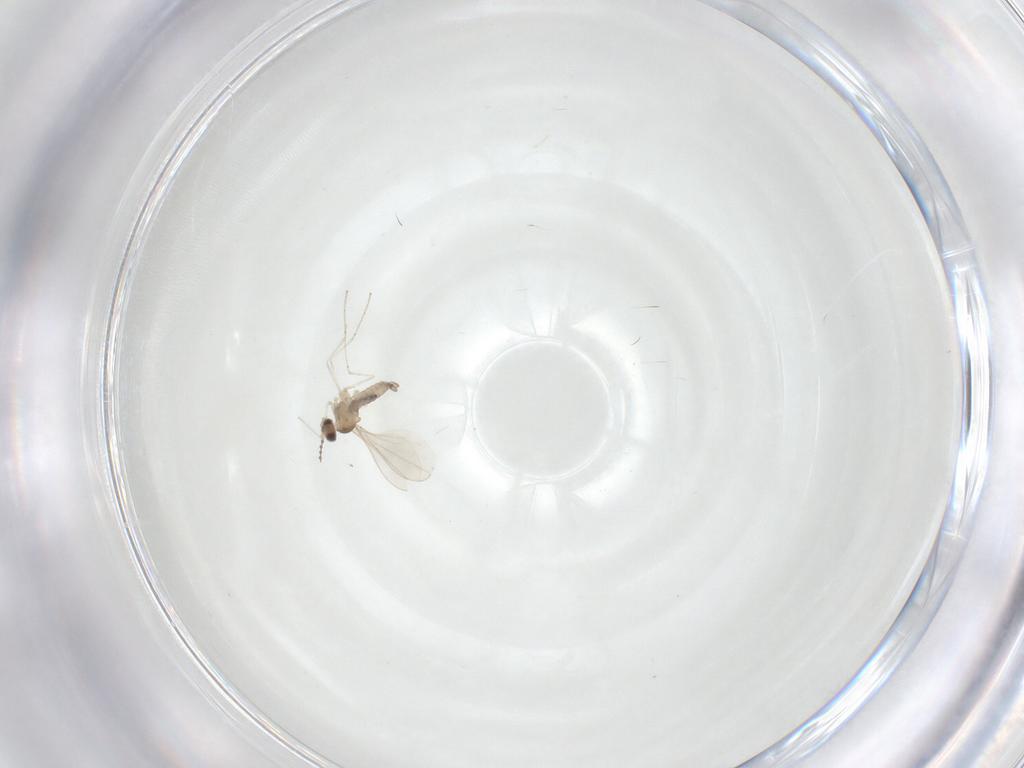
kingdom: Animalia
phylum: Arthropoda
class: Insecta
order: Diptera
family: Cecidomyiidae
